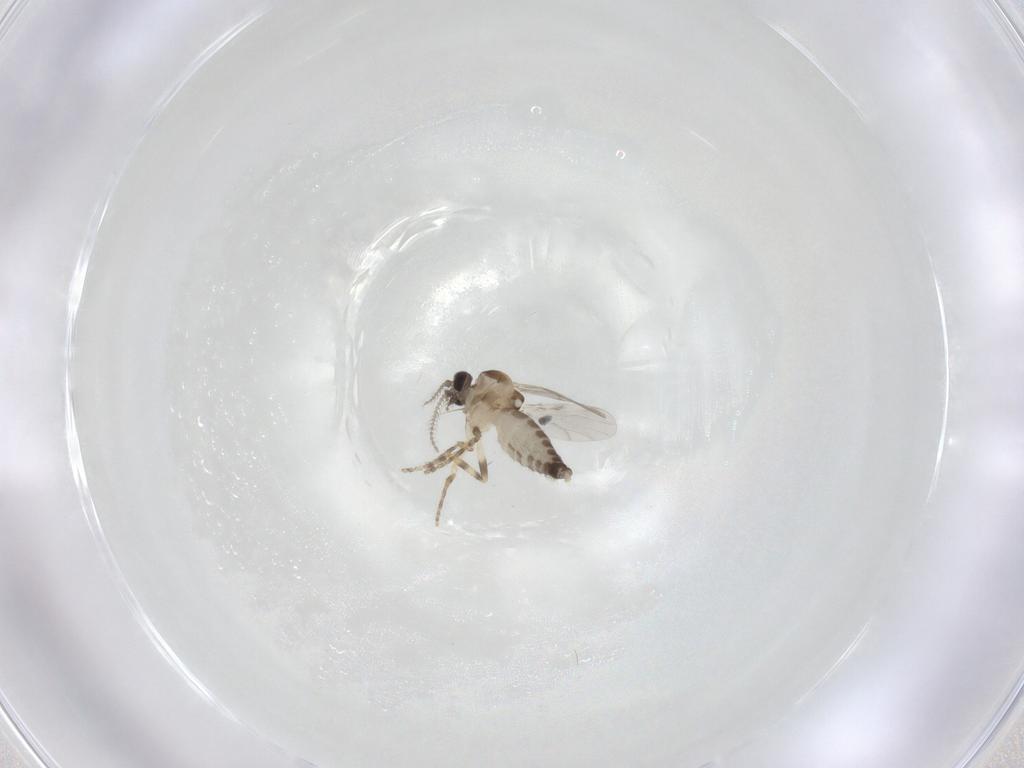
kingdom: Animalia
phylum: Arthropoda
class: Insecta
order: Diptera
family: Ceratopogonidae
